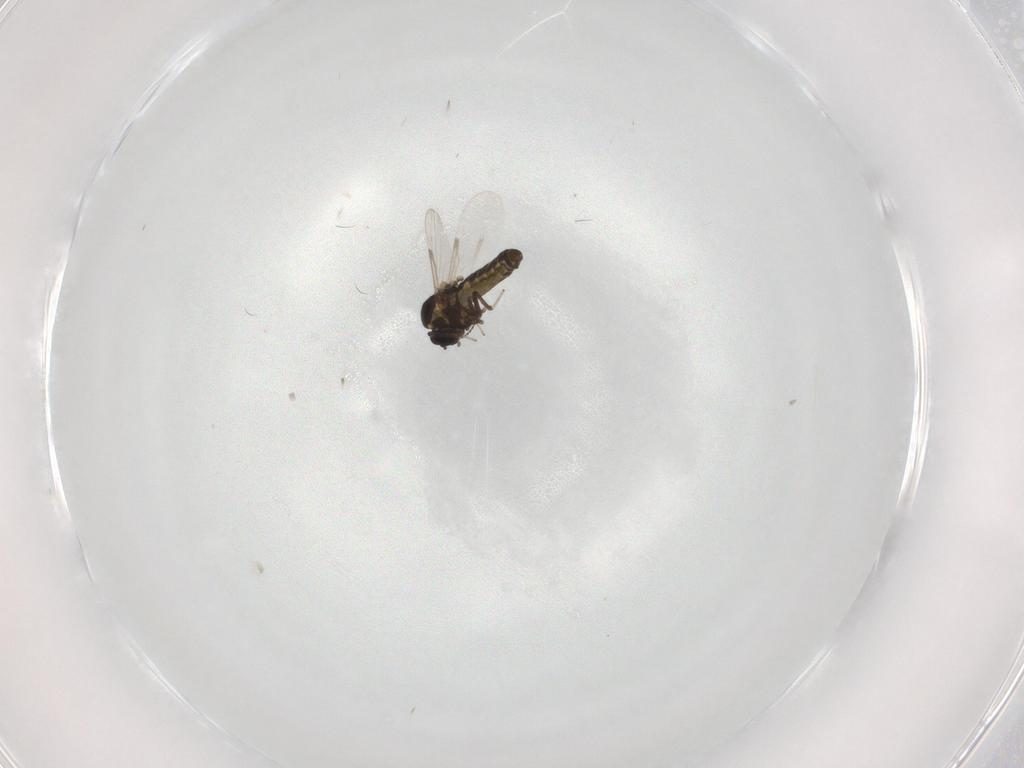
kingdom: Animalia
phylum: Arthropoda
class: Insecta
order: Diptera
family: Ceratopogonidae
